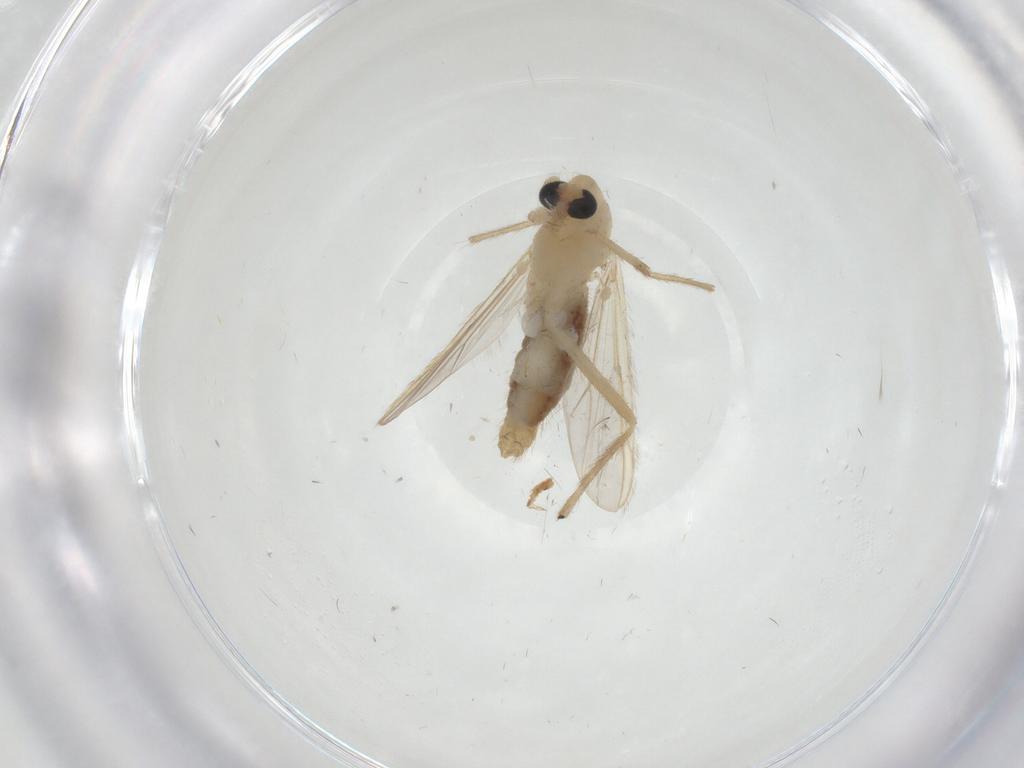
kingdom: Animalia
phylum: Arthropoda
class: Insecta
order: Diptera
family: Chironomidae
